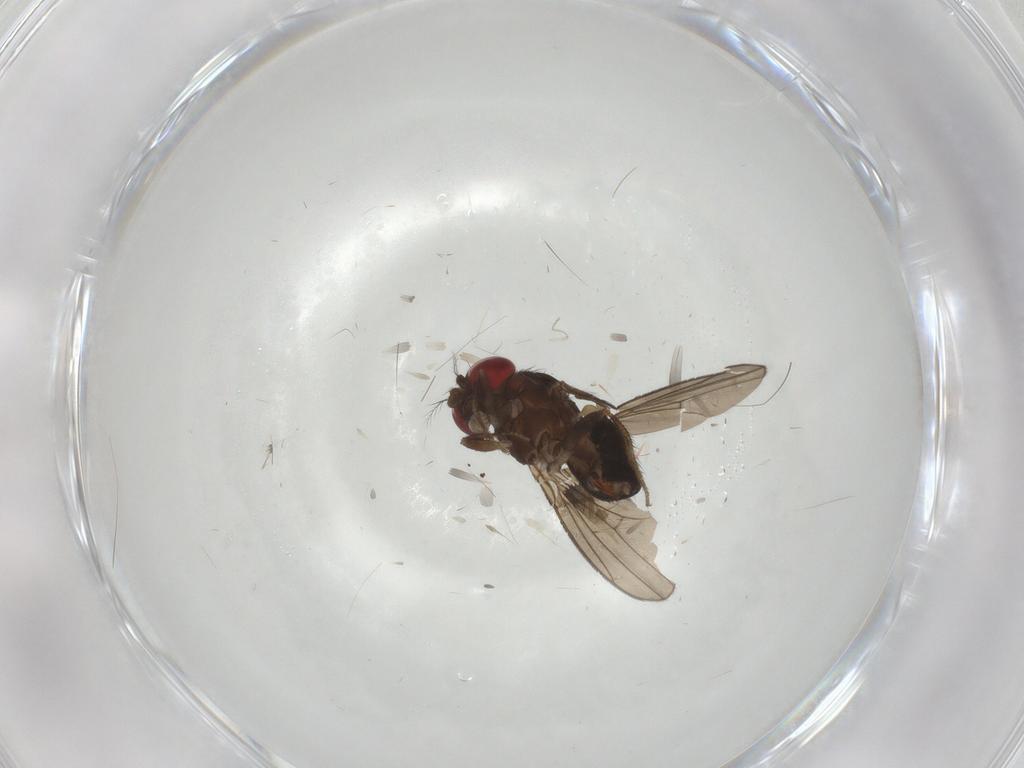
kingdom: Animalia
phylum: Arthropoda
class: Insecta
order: Diptera
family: Drosophilidae
